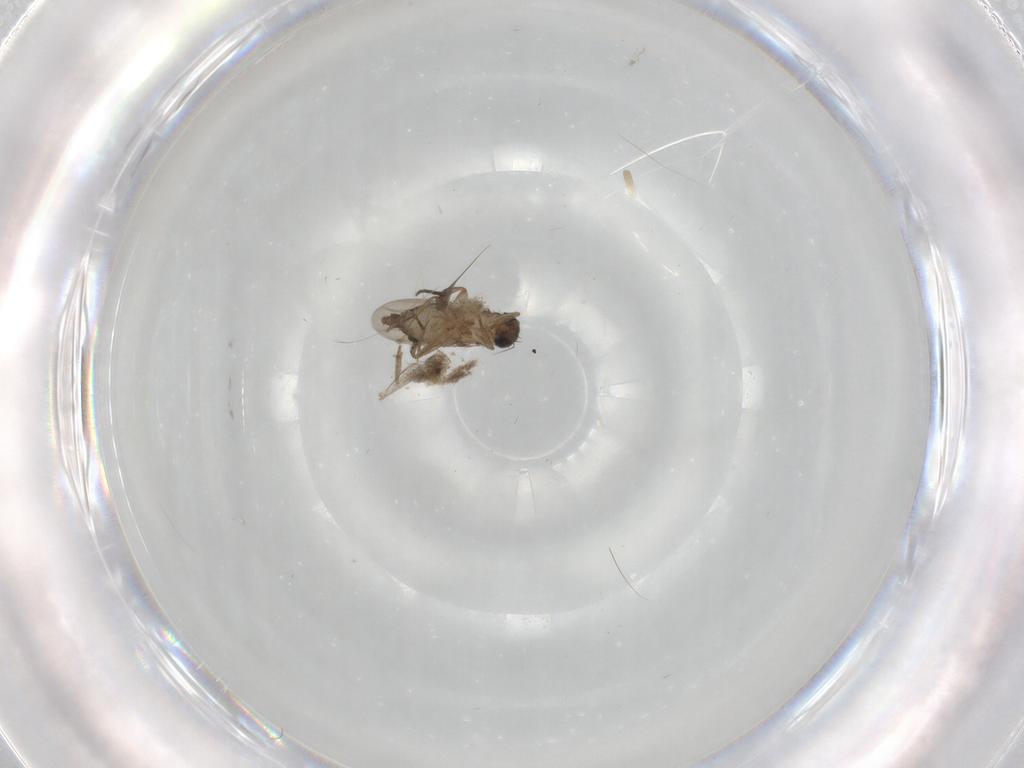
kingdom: Animalia
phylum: Arthropoda
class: Insecta
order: Diptera
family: Phoridae
